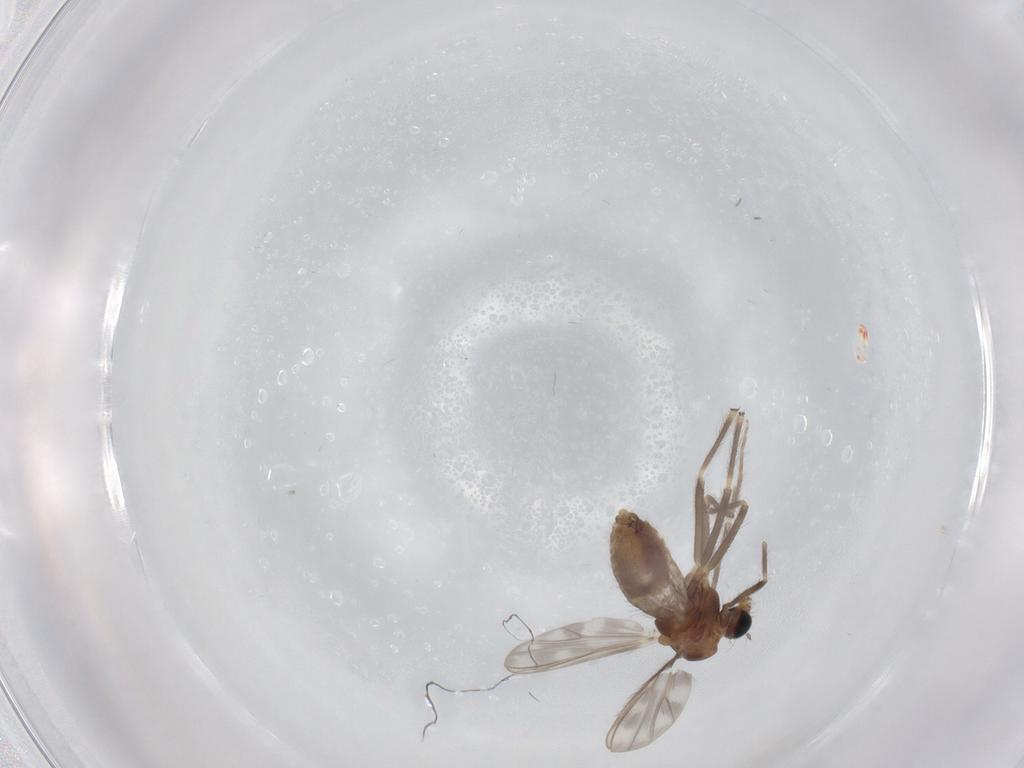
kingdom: Animalia
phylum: Arthropoda
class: Insecta
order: Diptera
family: Chironomidae
